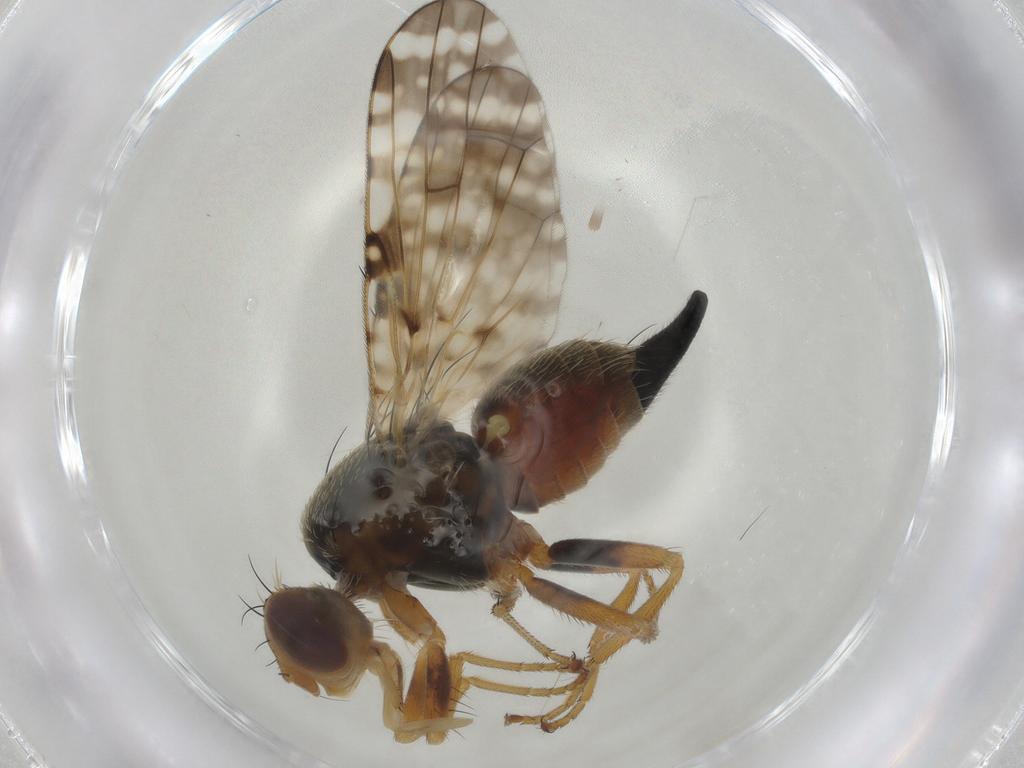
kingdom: Animalia
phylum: Arthropoda
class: Insecta
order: Diptera
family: Tephritidae
